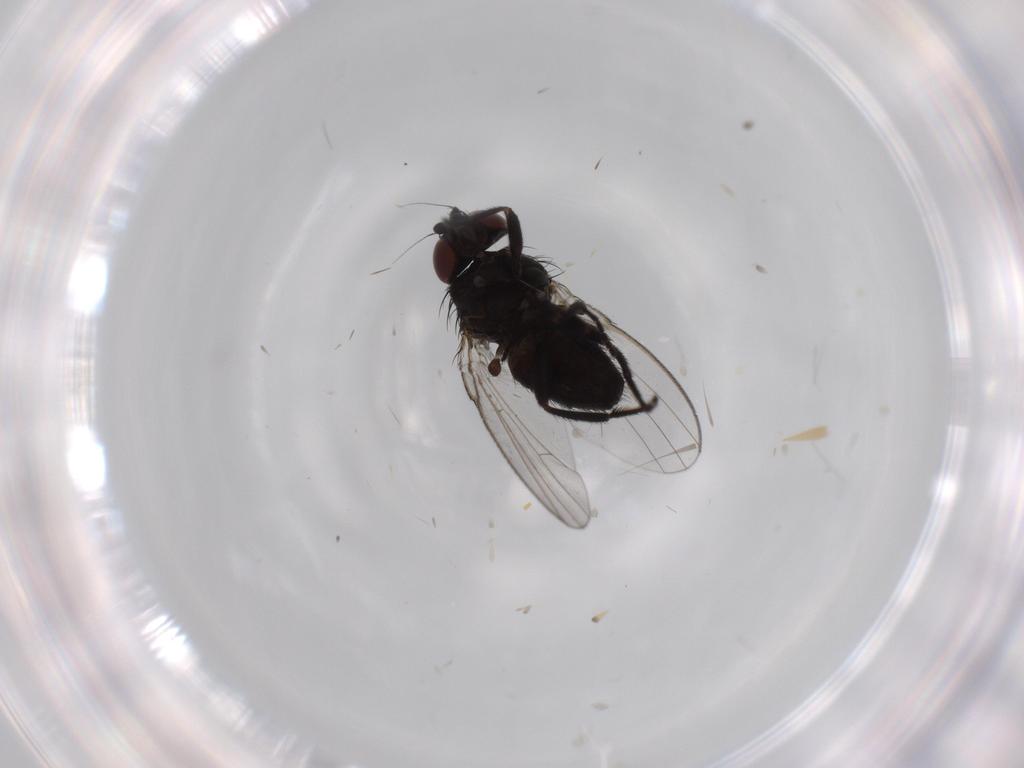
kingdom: Animalia
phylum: Arthropoda
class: Insecta
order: Diptera
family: Milichiidae
